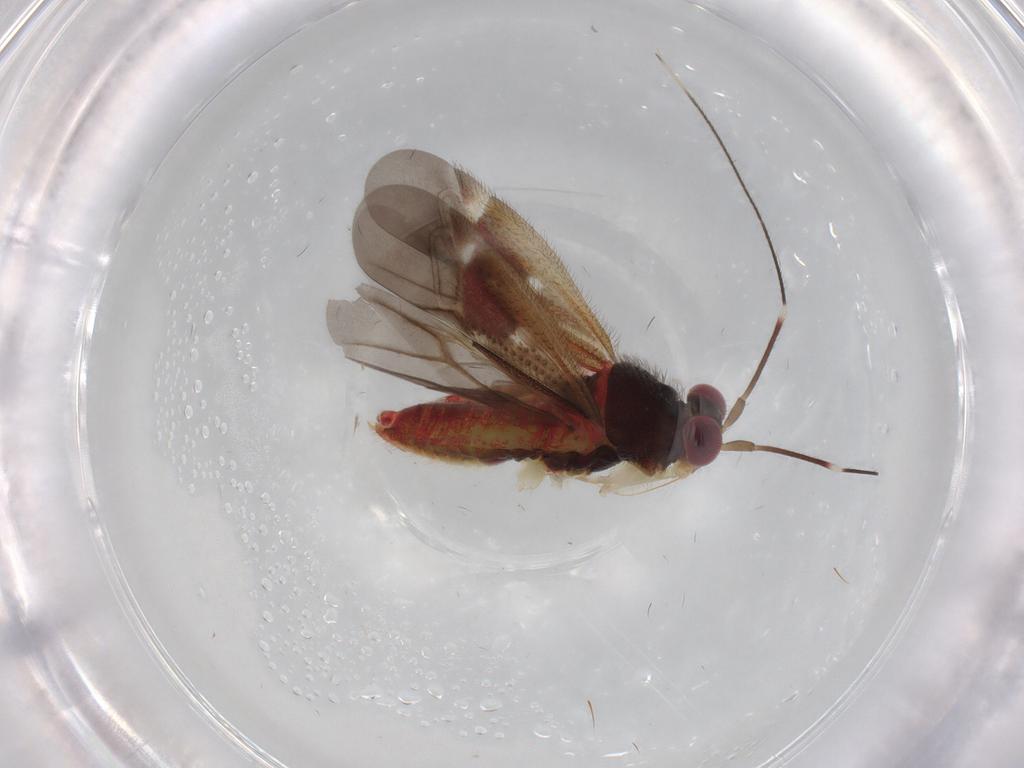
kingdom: Animalia
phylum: Arthropoda
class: Insecta
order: Hemiptera
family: Miridae
